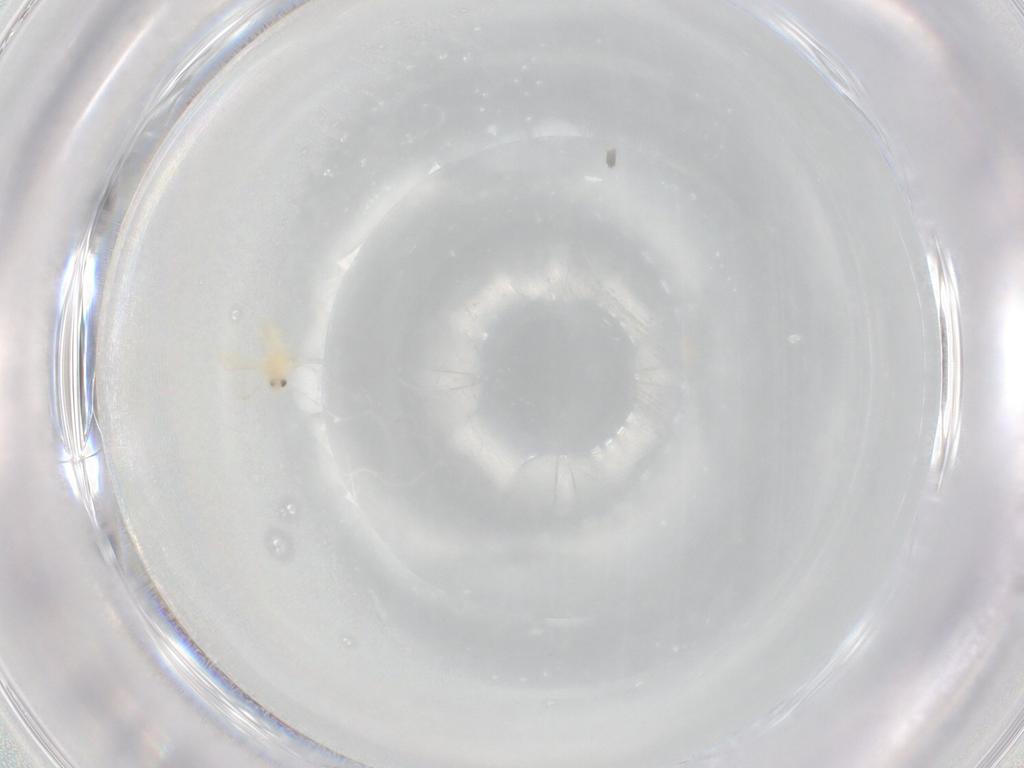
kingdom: Animalia
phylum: Arthropoda
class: Insecta
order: Hemiptera
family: Aleyrodidae
